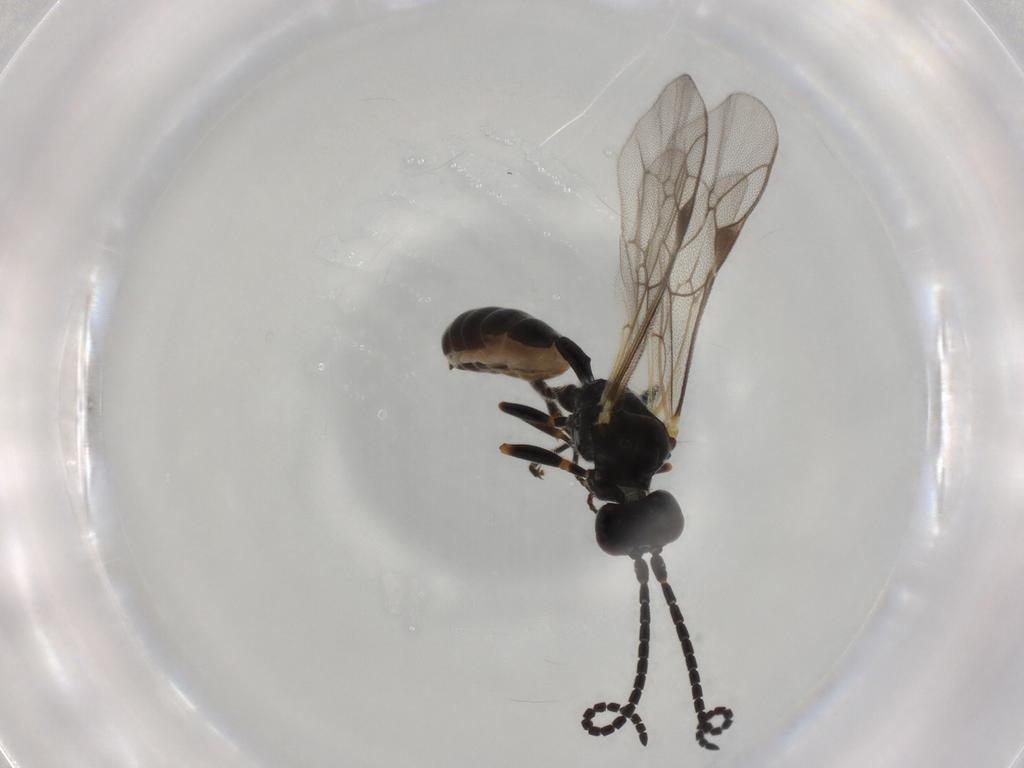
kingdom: Animalia
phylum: Arthropoda
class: Insecta
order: Hymenoptera
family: Ichneumonidae
